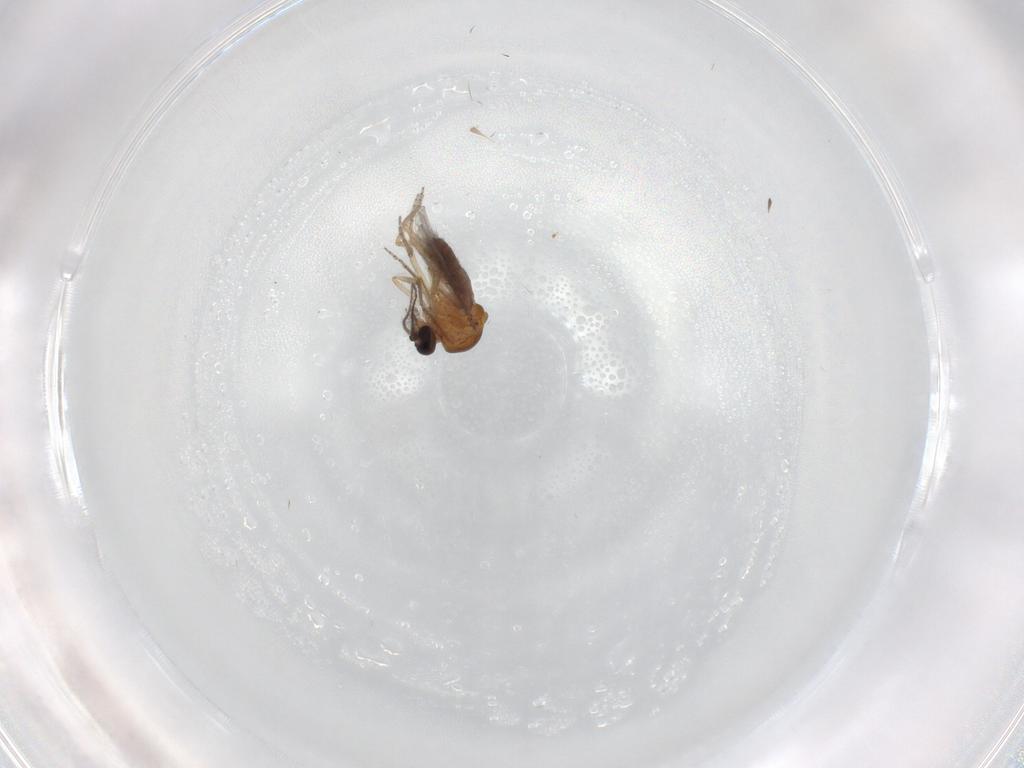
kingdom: Animalia
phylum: Arthropoda
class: Insecta
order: Diptera
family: Ceratopogonidae
